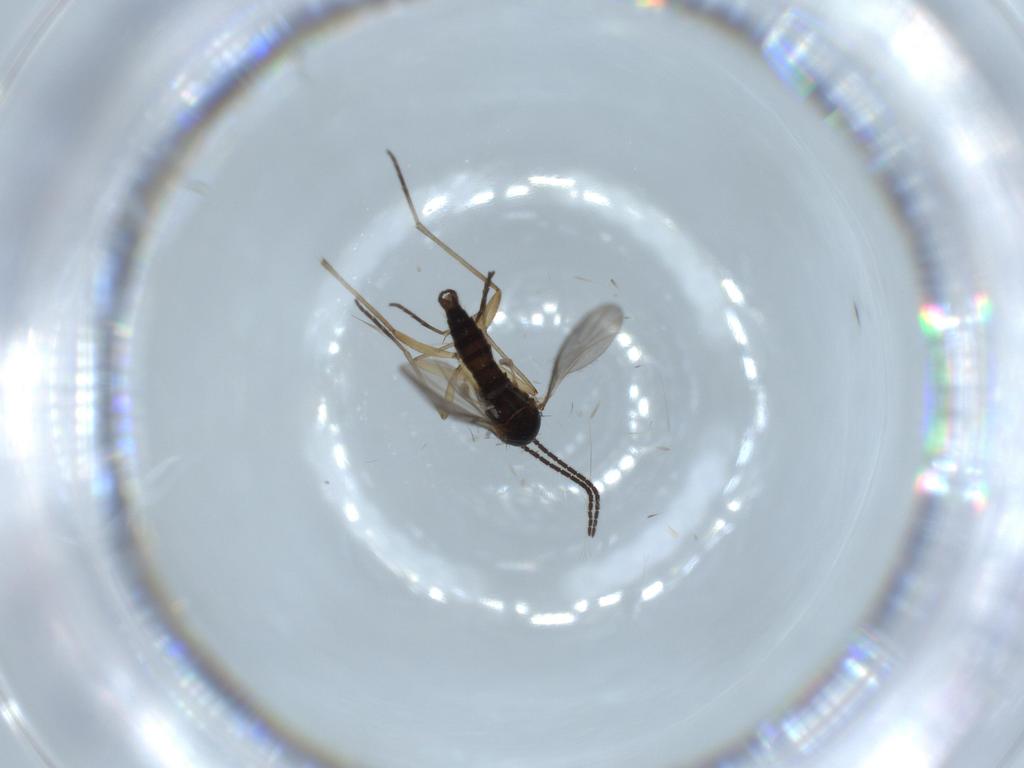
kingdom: Animalia
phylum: Arthropoda
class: Insecta
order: Diptera
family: Sciaridae
